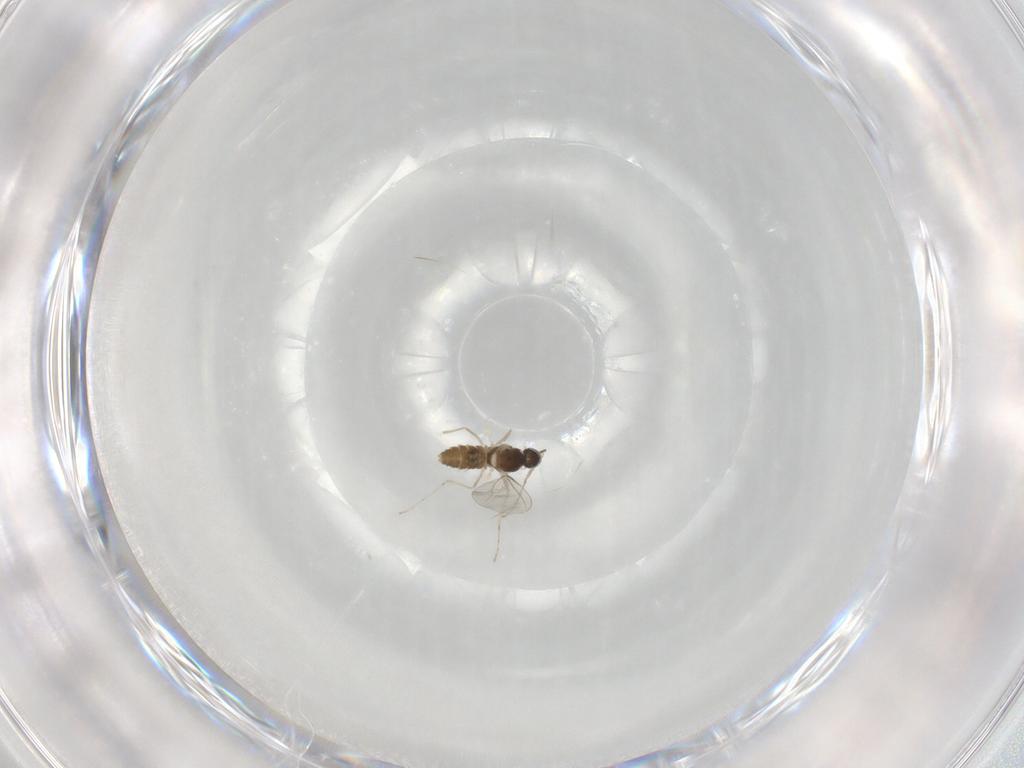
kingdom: Animalia
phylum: Arthropoda
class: Insecta
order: Diptera
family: Cecidomyiidae
